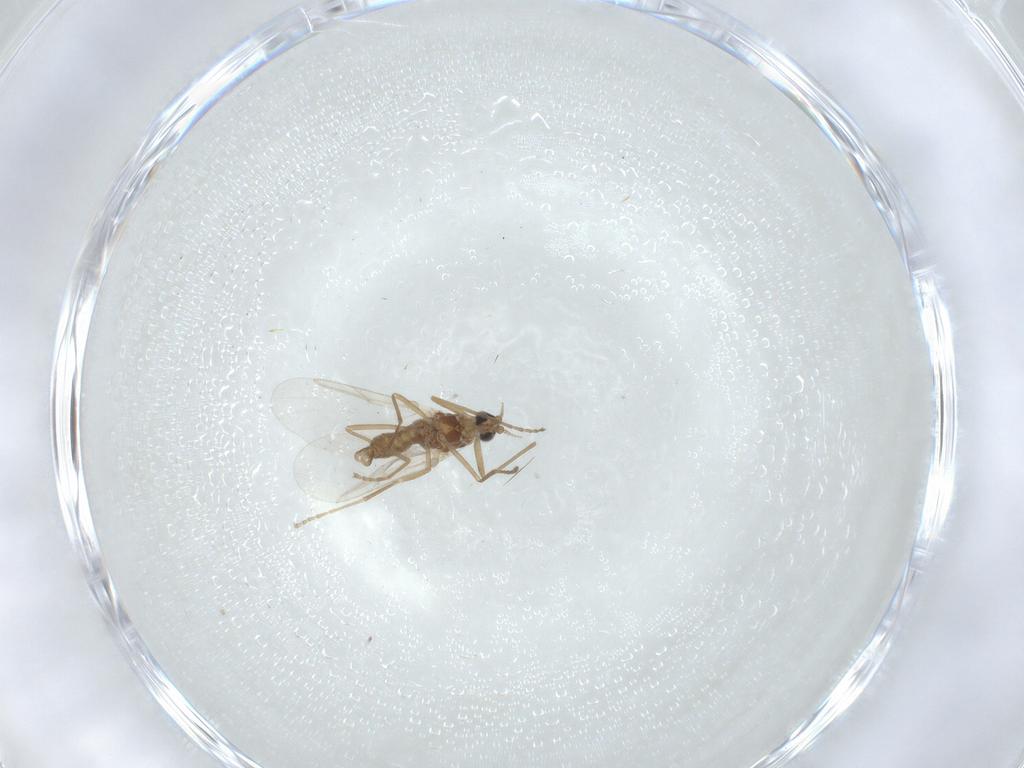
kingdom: Animalia
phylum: Arthropoda
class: Insecta
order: Diptera
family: Cecidomyiidae
